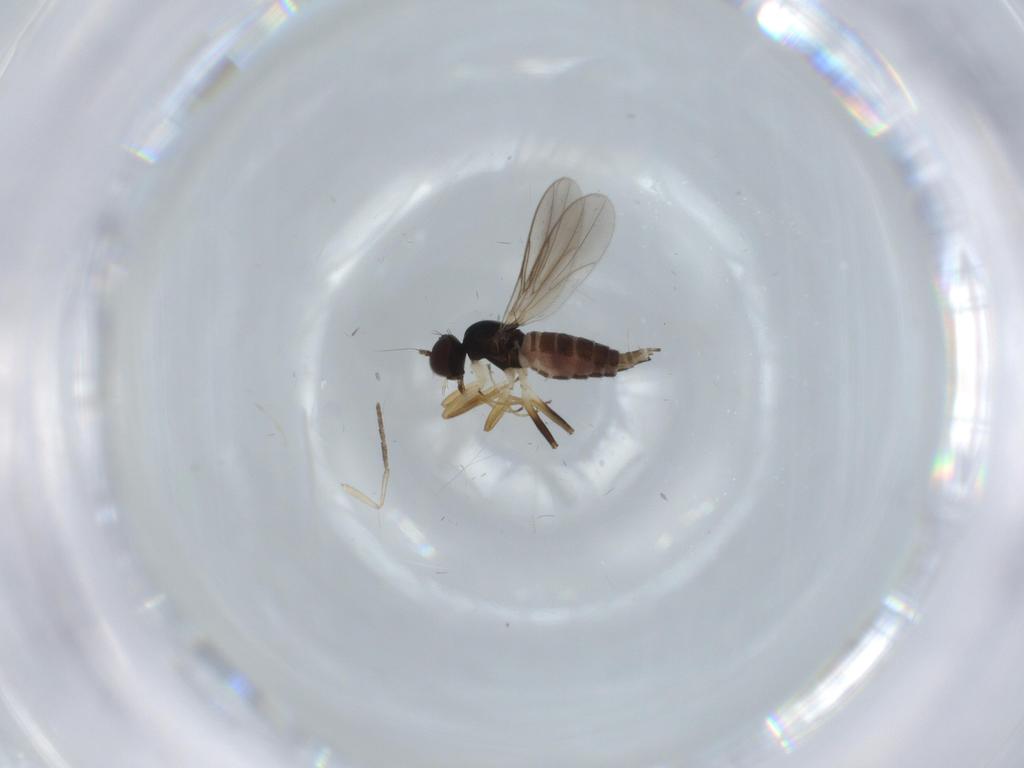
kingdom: Animalia
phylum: Arthropoda
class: Insecta
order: Diptera
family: Hybotidae
